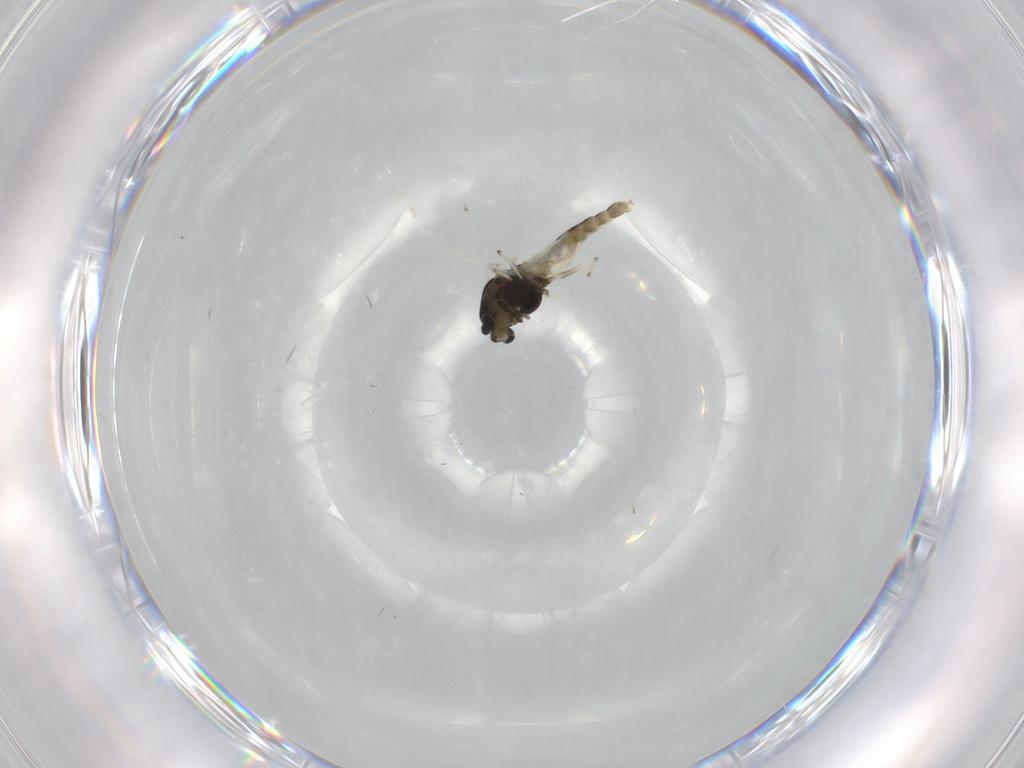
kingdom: Animalia
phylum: Arthropoda
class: Insecta
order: Diptera
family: Chironomidae
